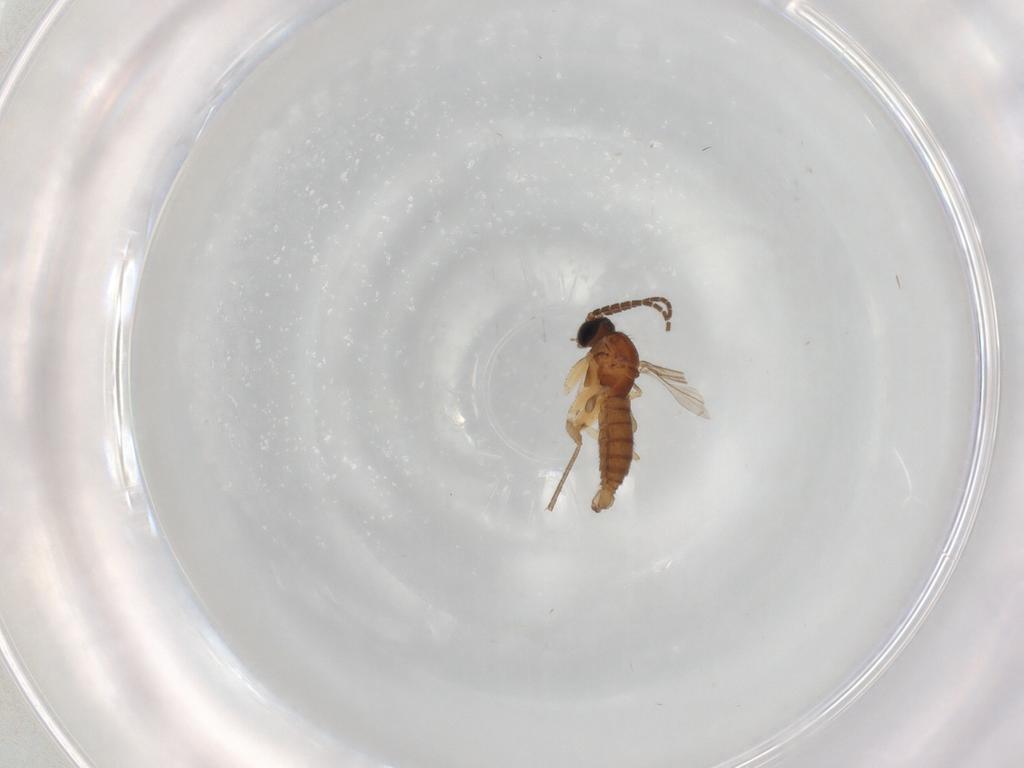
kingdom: Animalia
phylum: Arthropoda
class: Insecta
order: Diptera
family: Sciaridae
